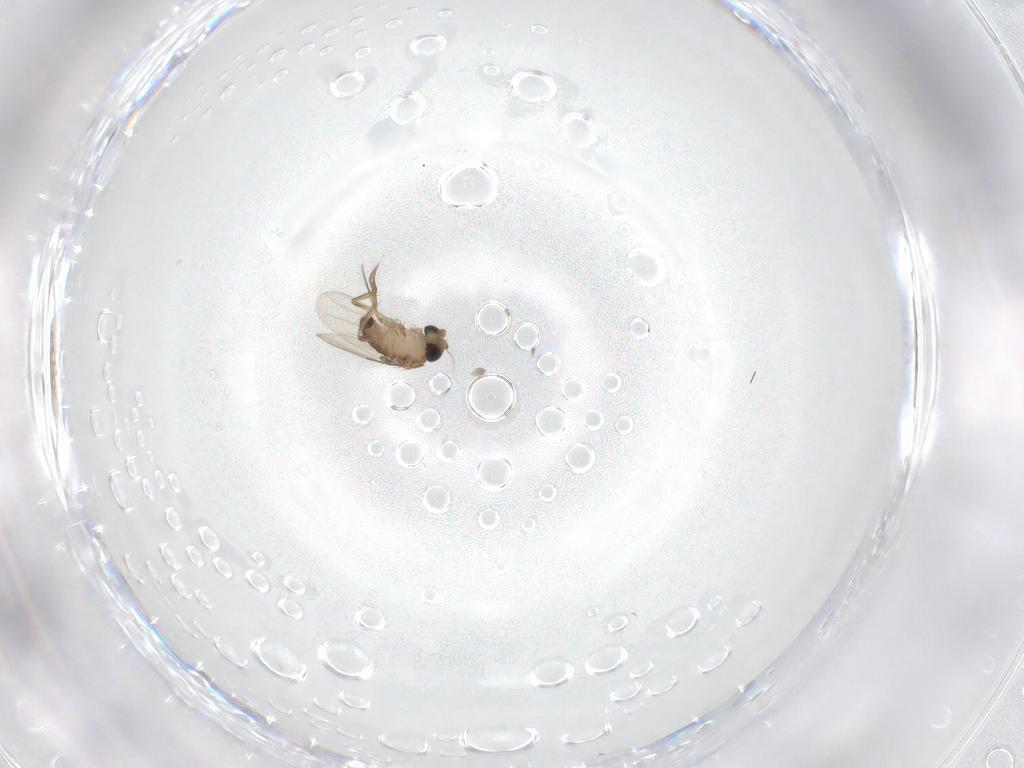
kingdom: Animalia
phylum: Arthropoda
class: Insecta
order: Diptera
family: Phoridae
